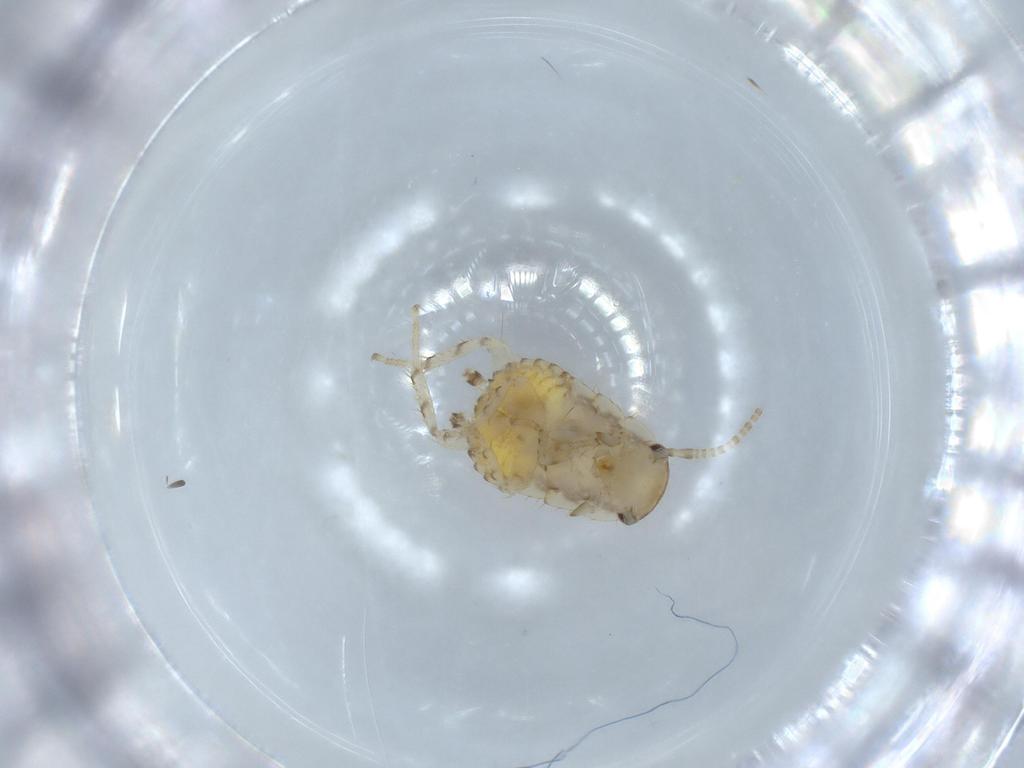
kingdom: Animalia
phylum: Arthropoda
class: Insecta
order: Blattodea
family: Ectobiidae
